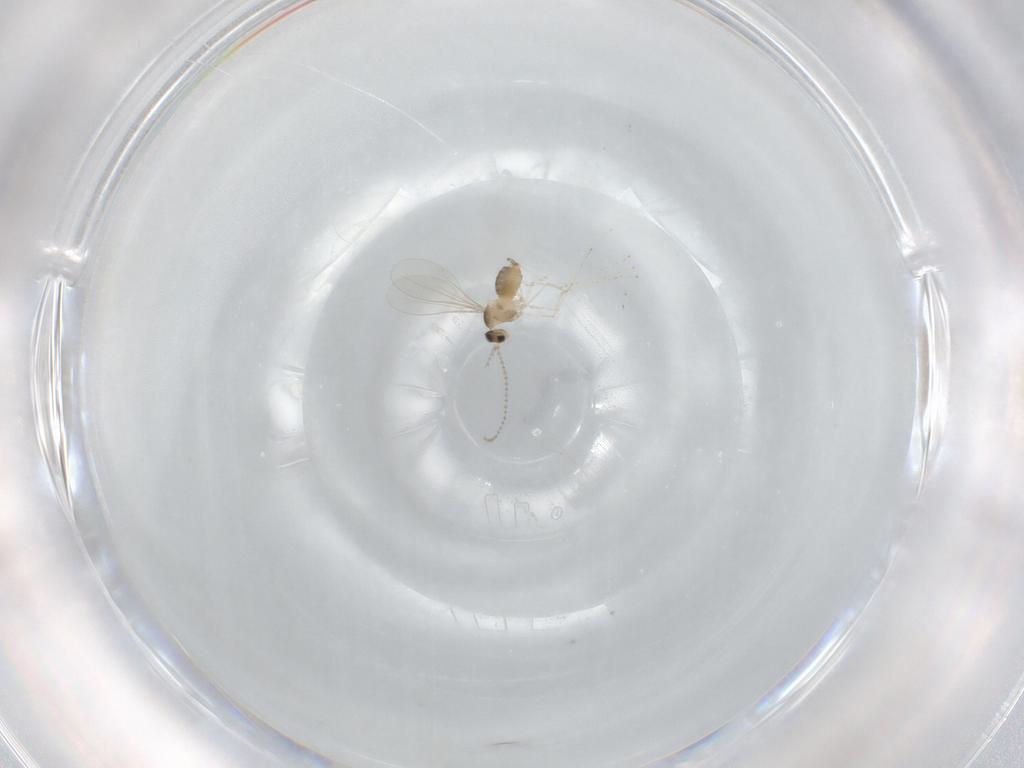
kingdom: Animalia
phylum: Arthropoda
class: Insecta
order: Diptera
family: Cecidomyiidae
